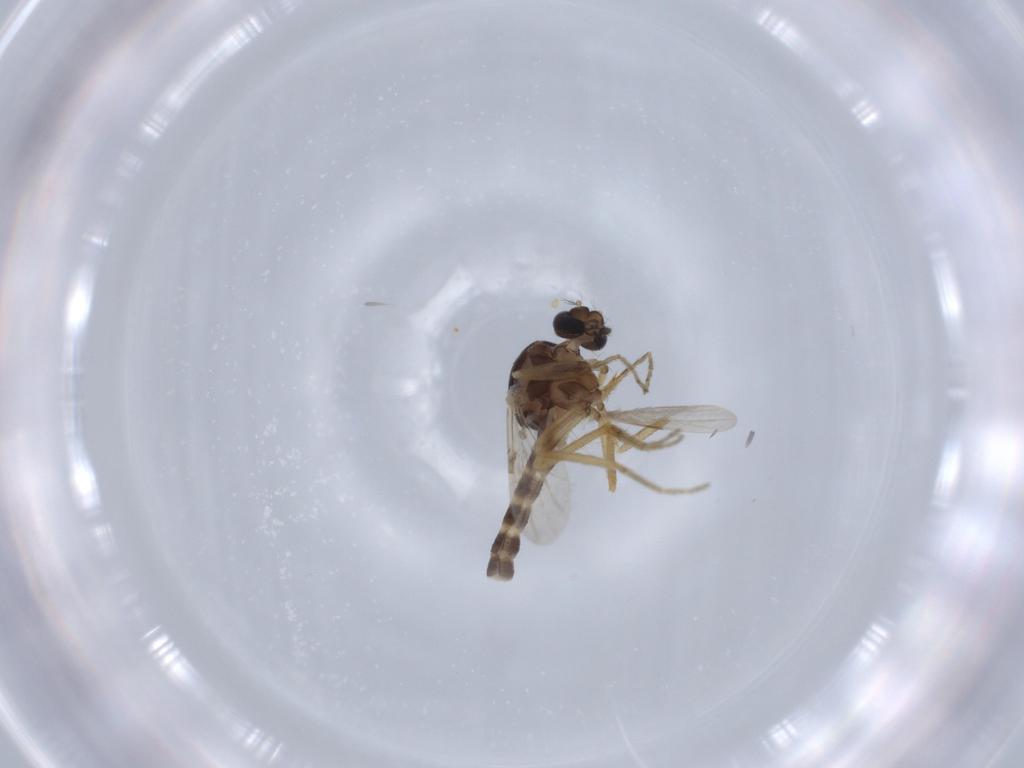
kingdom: Animalia
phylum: Arthropoda
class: Insecta
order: Diptera
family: Ceratopogonidae
